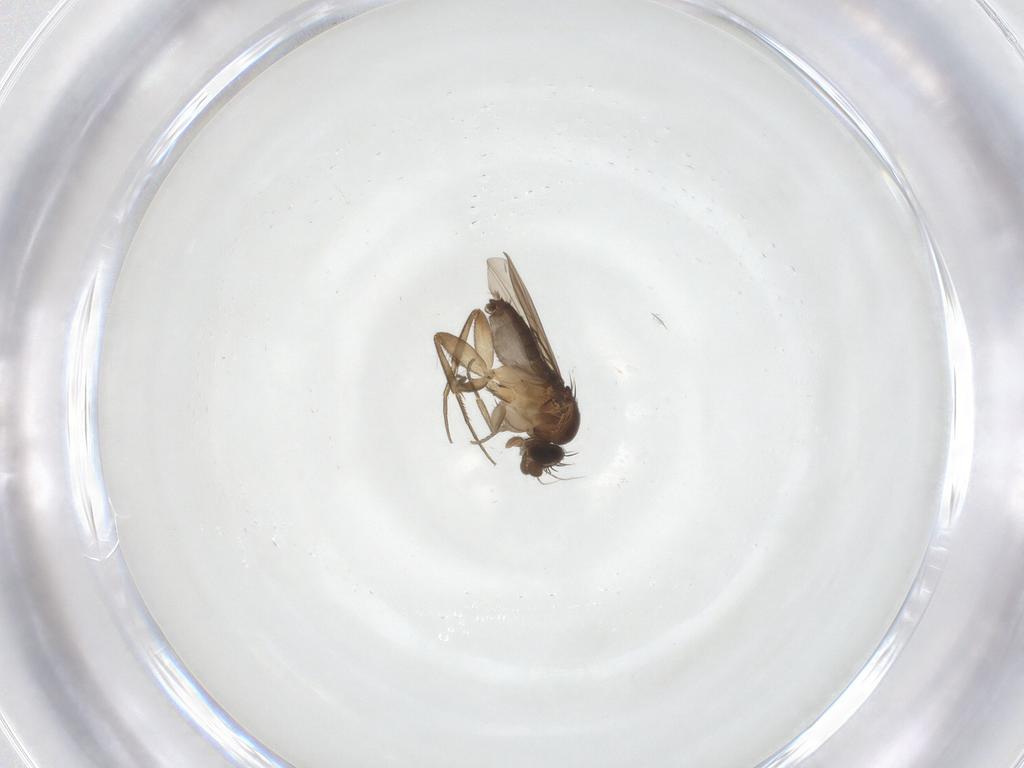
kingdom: Animalia
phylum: Arthropoda
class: Insecta
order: Diptera
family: Phoridae
